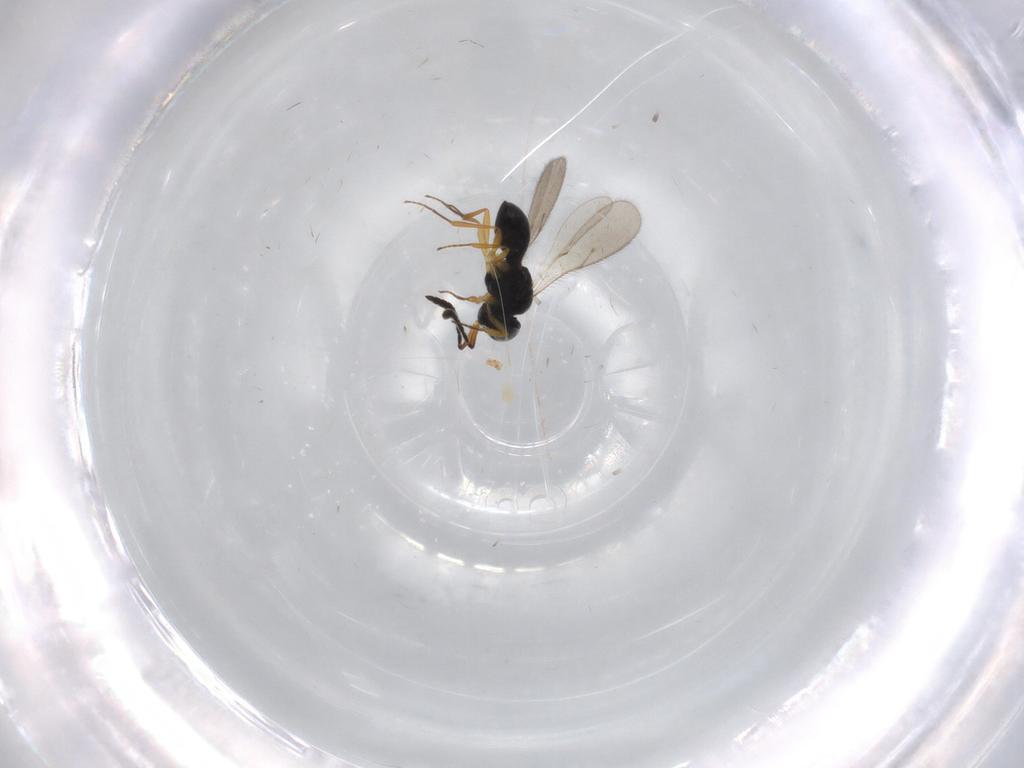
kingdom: Animalia
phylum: Arthropoda
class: Insecta
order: Hymenoptera
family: Scelionidae
